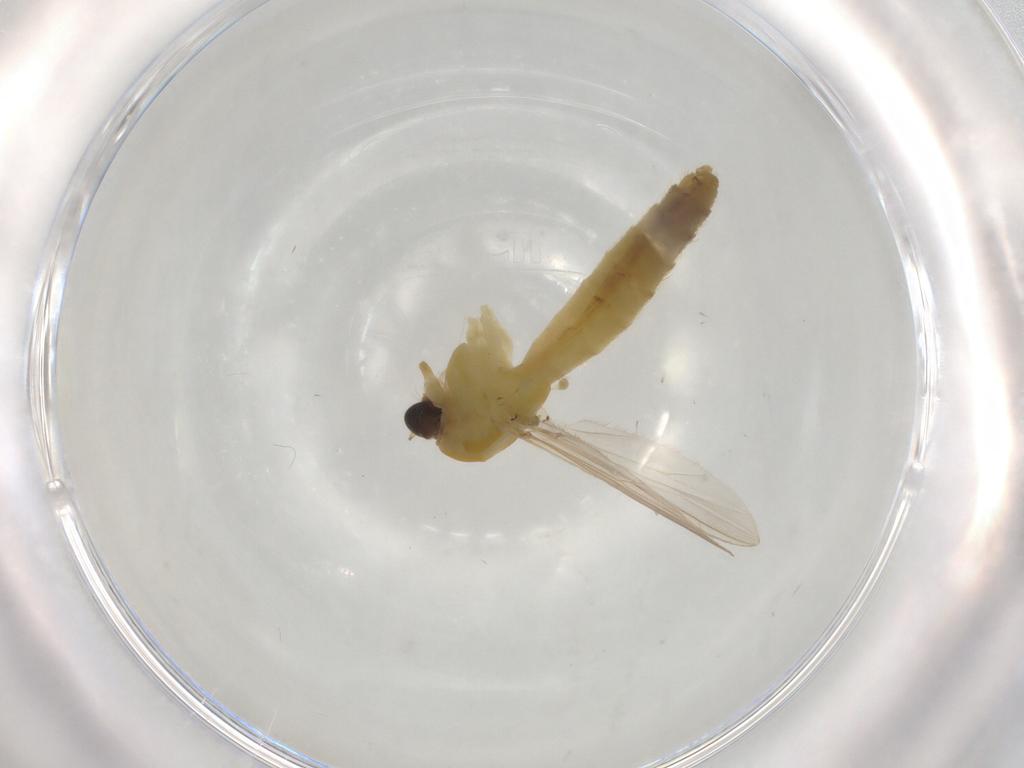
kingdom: Animalia
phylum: Arthropoda
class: Insecta
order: Diptera
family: Chironomidae
